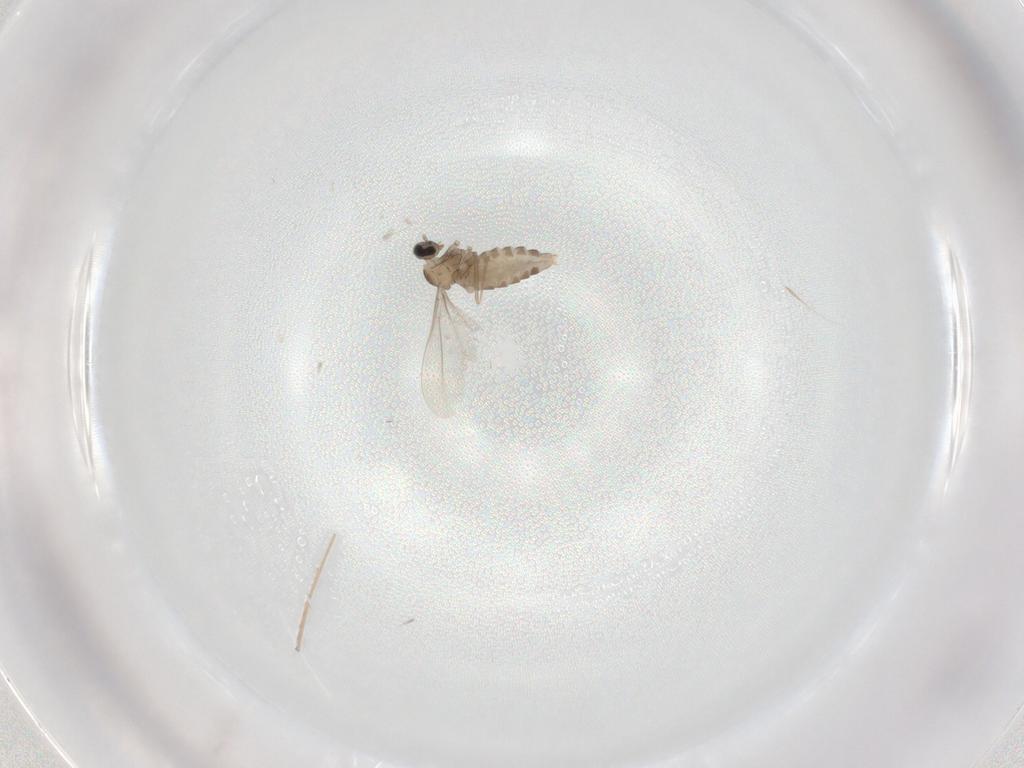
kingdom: Animalia
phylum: Arthropoda
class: Insecta
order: Diptera
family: Cecidomyiidae
